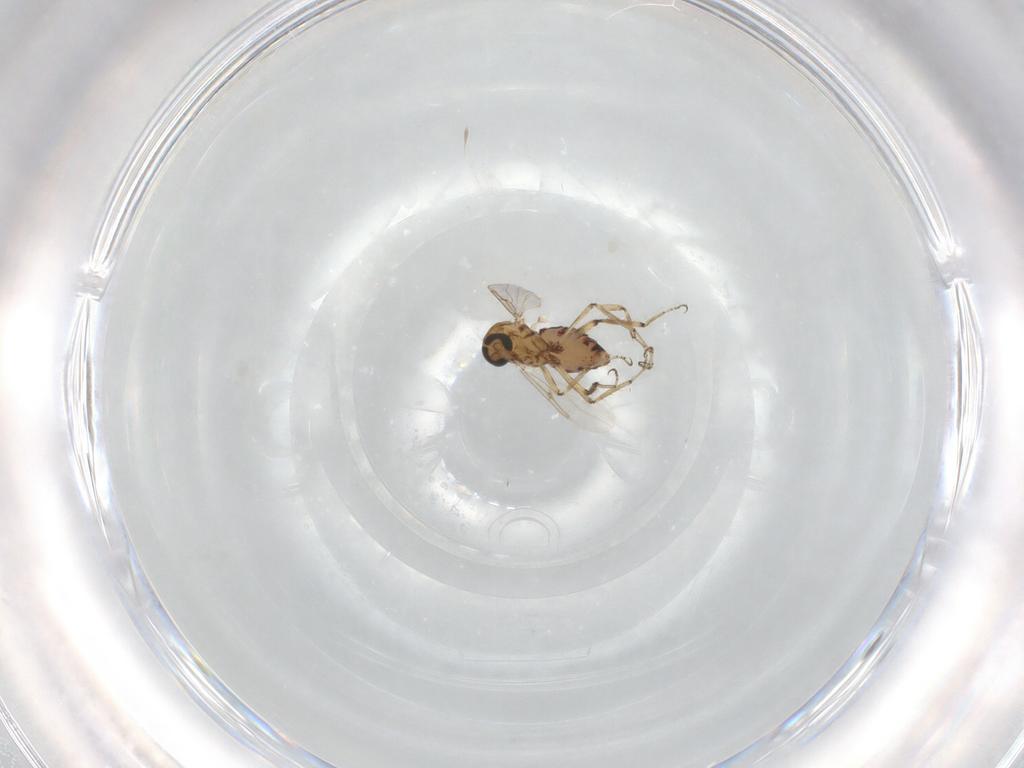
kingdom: Animalia
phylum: Arthropoda
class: Insecta
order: Diptera
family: Ceratopogonidae
